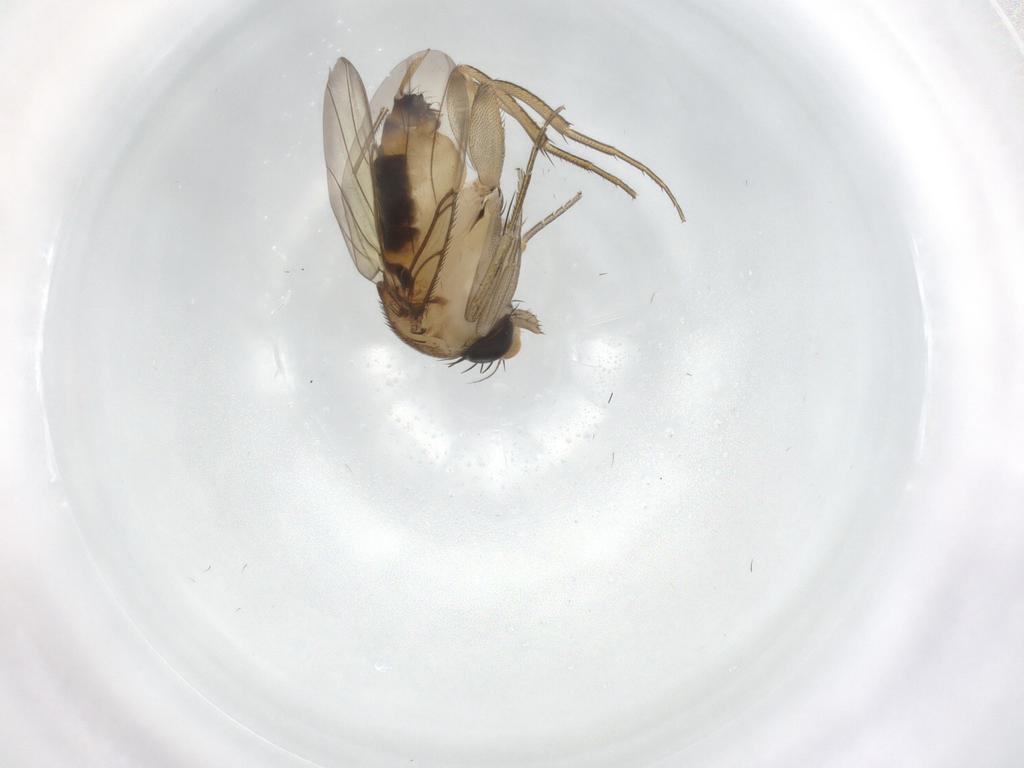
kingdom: Animalia
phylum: Arthropoda
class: Insecta
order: Diptera
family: Phoridae
